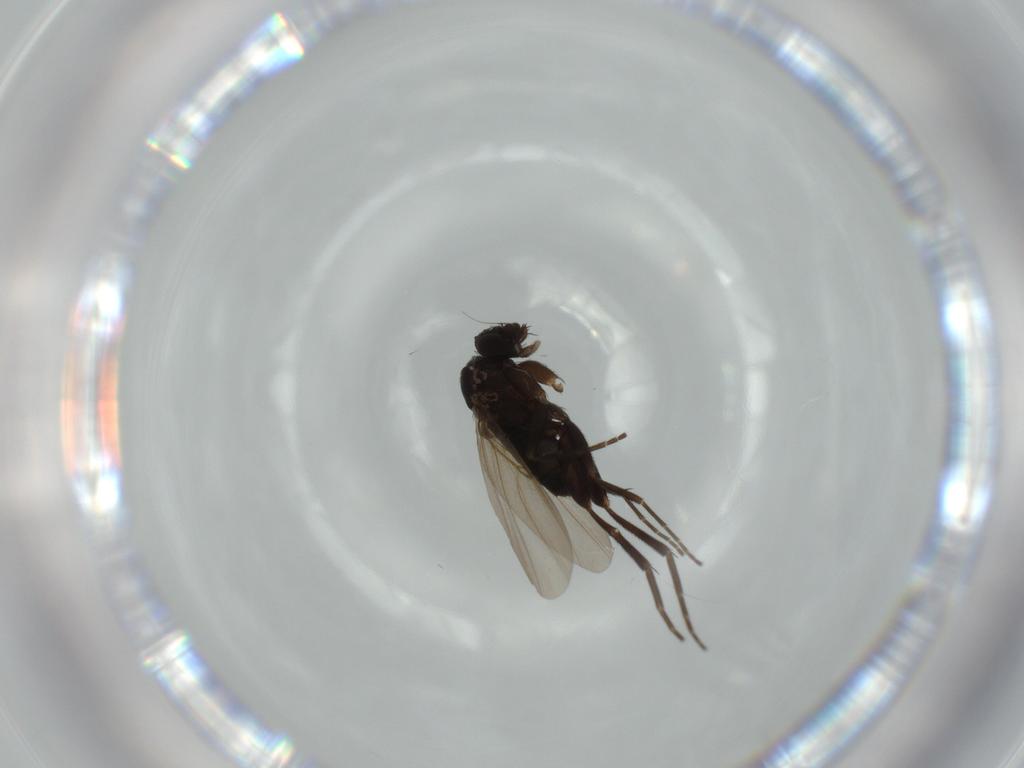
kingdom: Animalia
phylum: Arthropoda
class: Insecta
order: Diptera
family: Phoridae
